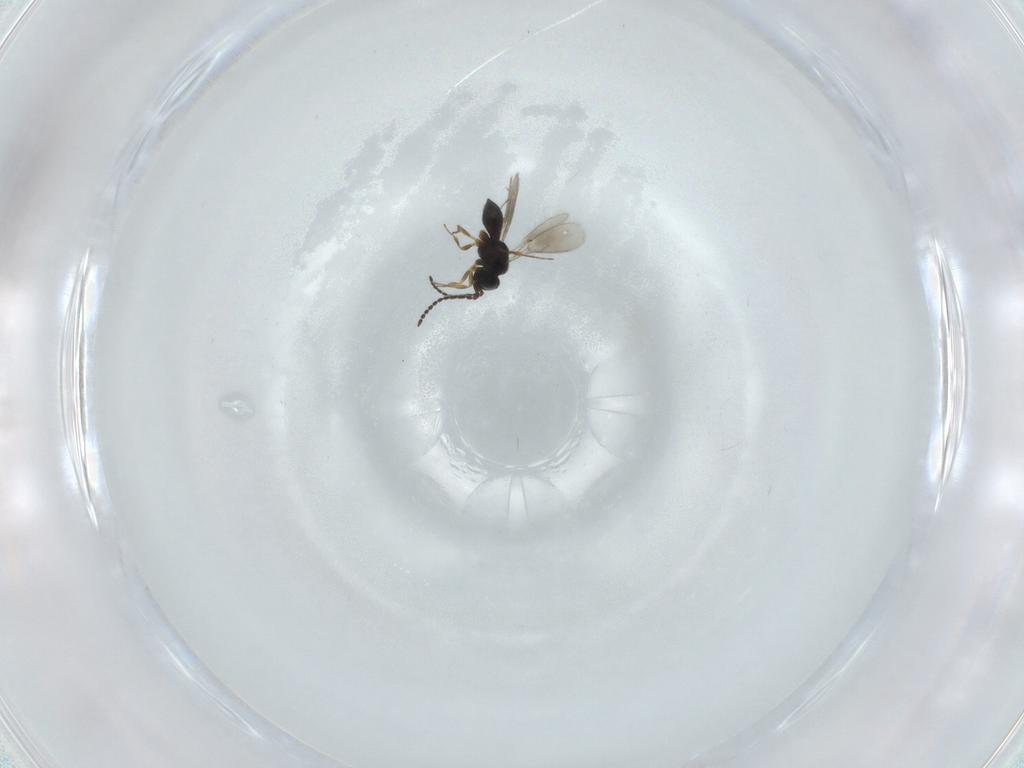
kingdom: Animalia
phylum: Arthropoda
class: Insecta
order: Hymenoptera
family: Scelionidae
